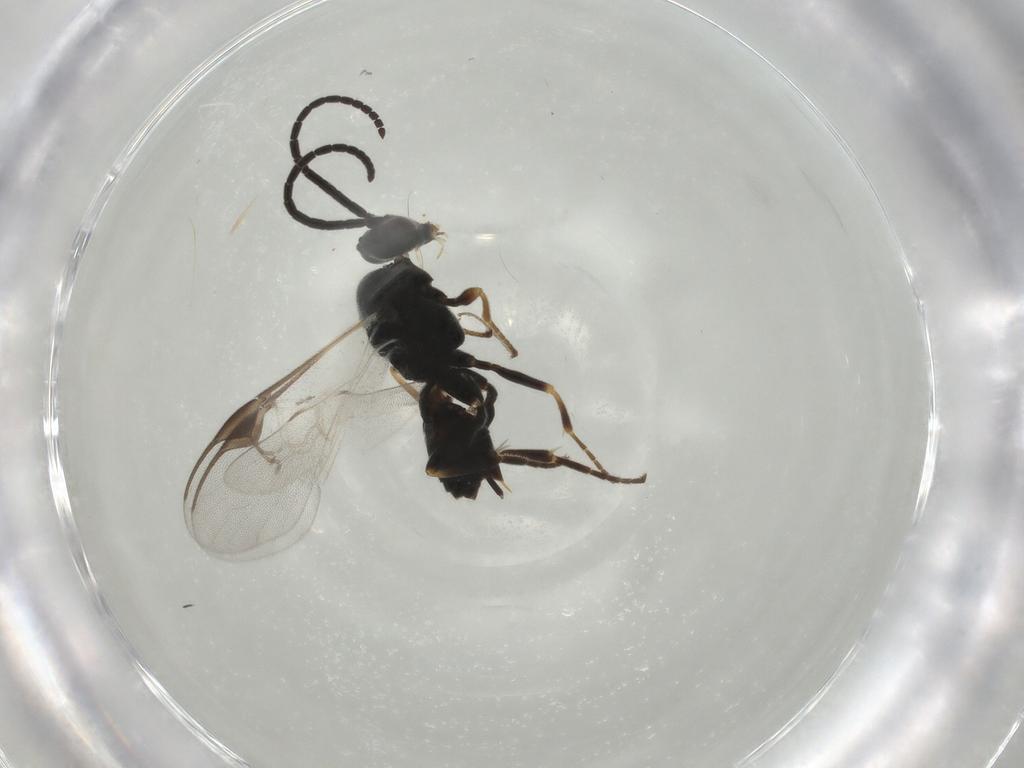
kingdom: Animalia
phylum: Arthropoda
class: Insecta
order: Hymenoptera
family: Braconidae
